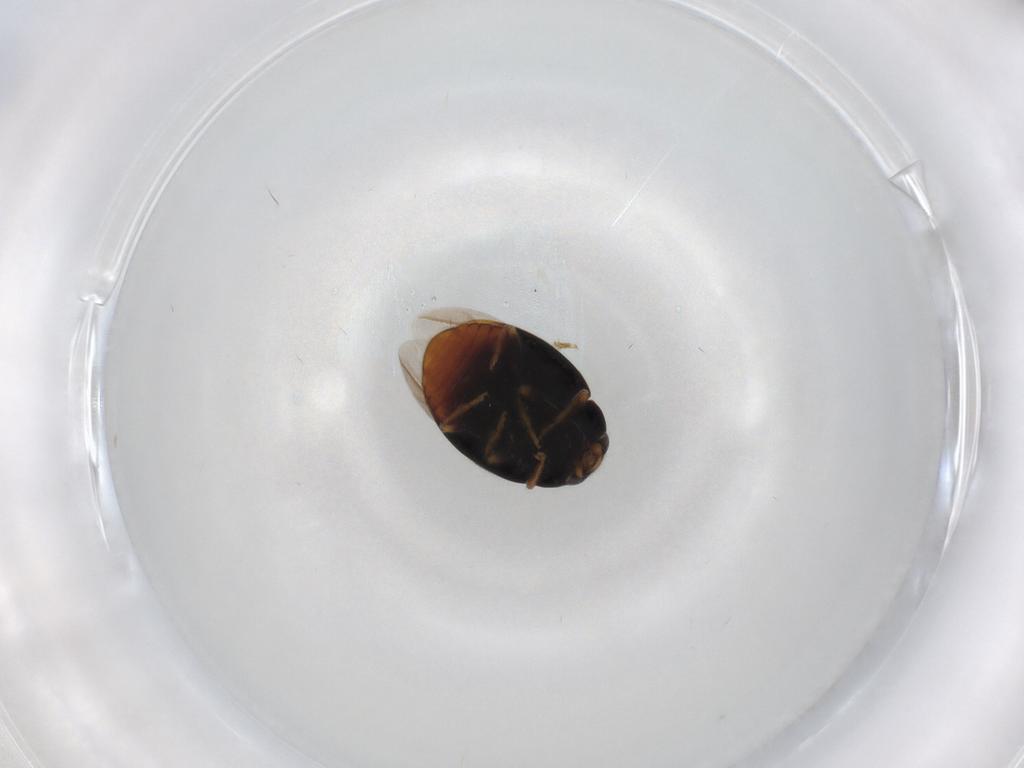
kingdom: Animalia
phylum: Arthropoda
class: Insecta
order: Coleoptera
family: Coccinellidae
